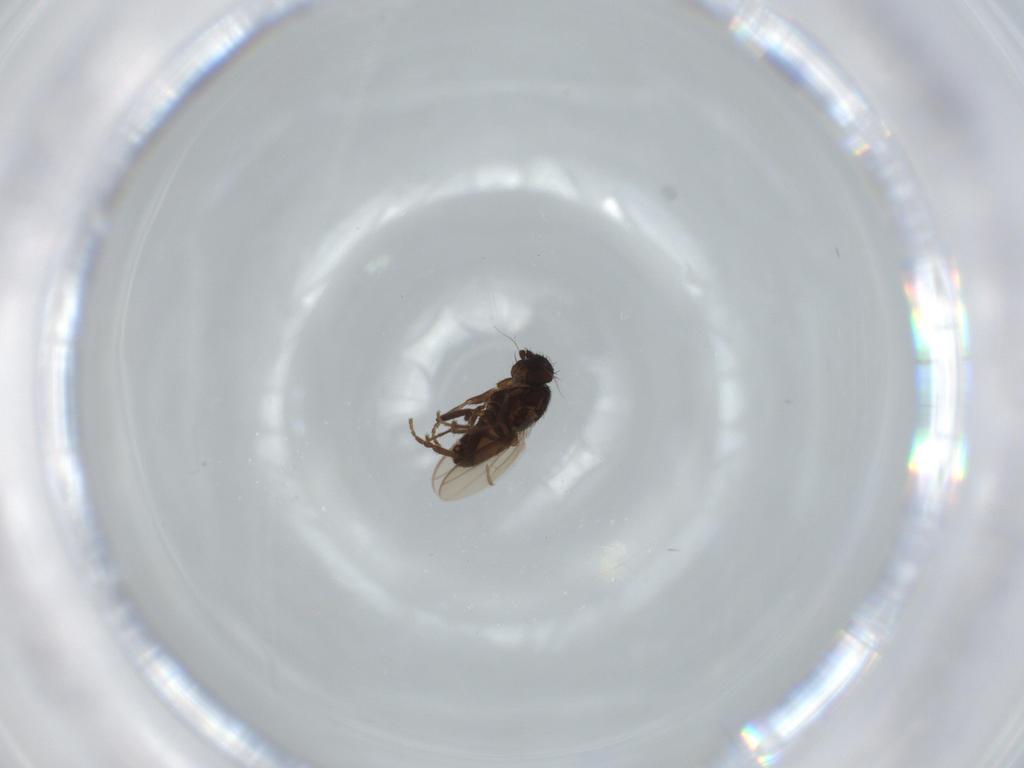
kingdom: Animalia
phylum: Arthropoda
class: Insecta
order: Diptera
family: Sphaeroceridae
